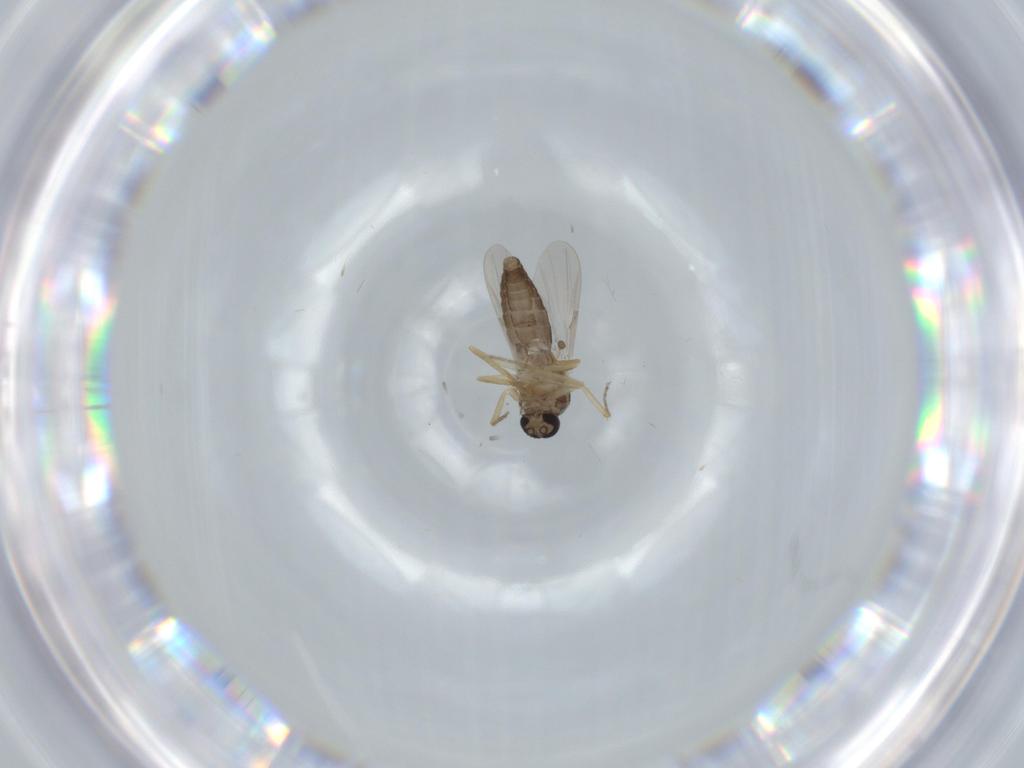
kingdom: Animalia
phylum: Arthropoda
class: Insecta
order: Diptera
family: Ceratopogonidae
